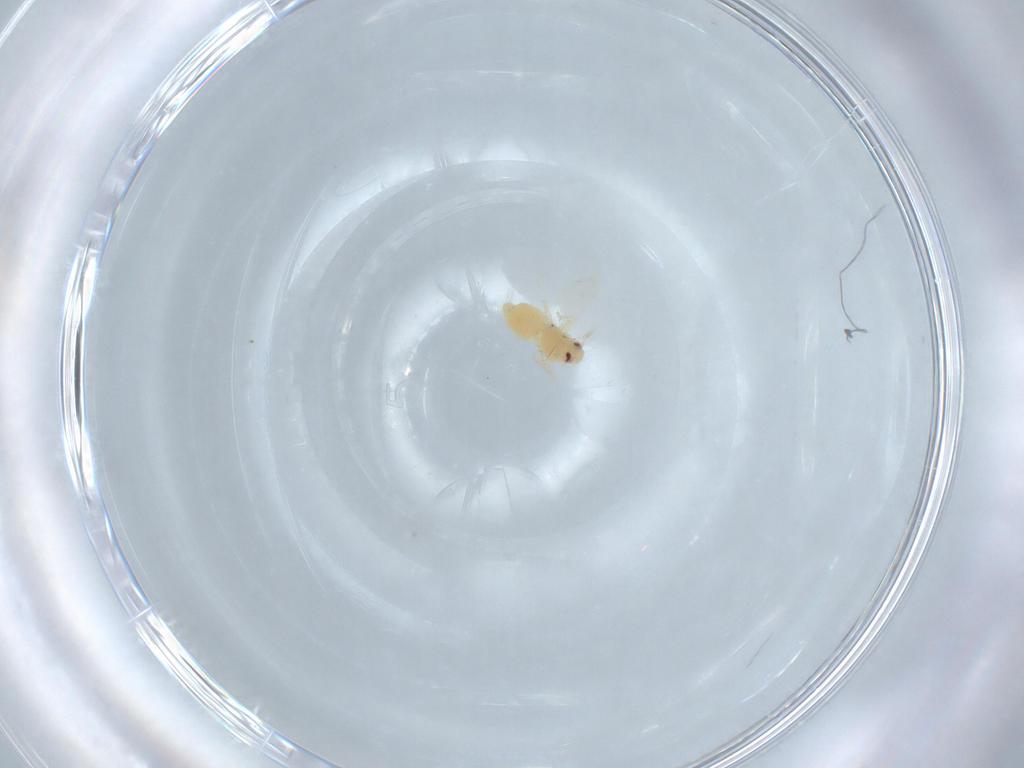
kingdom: Animalia
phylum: Arthropoda
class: Insecta
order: Hemiptera
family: Aleyrodidae
